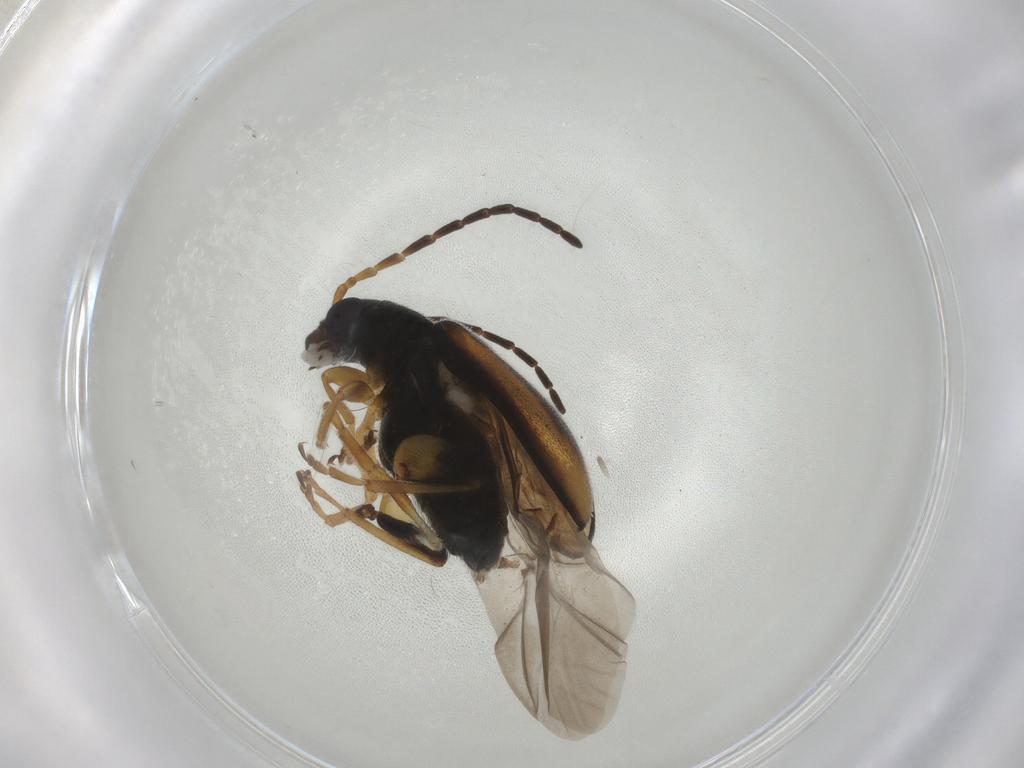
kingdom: Animalia
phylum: Arthropoda
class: Insecta
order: Coleoptera
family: Chrysomelidae
